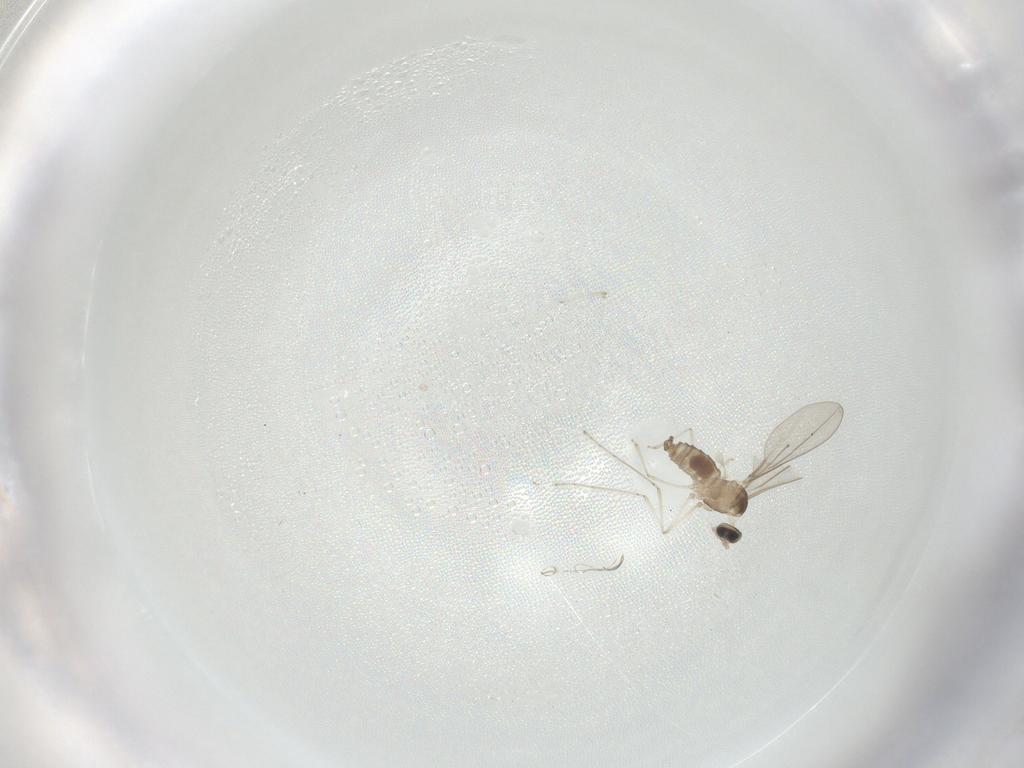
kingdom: Animalia
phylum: Arthropoda
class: Insecta
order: Diptera
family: Cecidomyiidae
